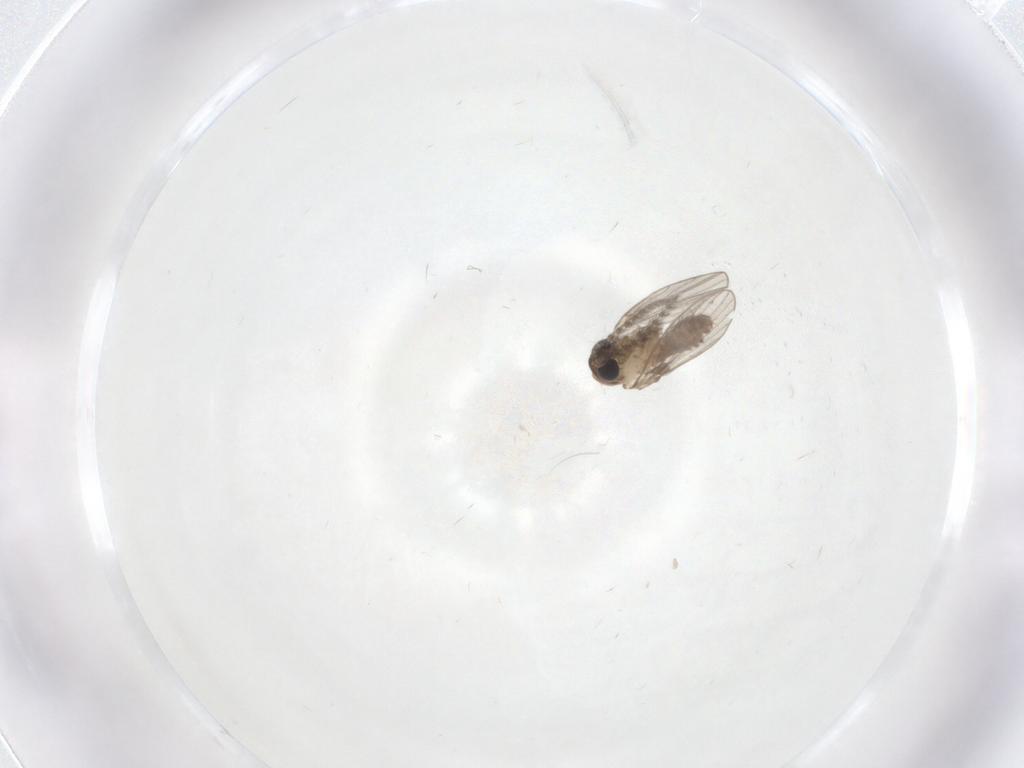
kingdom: Animalia
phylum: Arthropoda
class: Insecta
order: Diptera
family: Psychodidae
